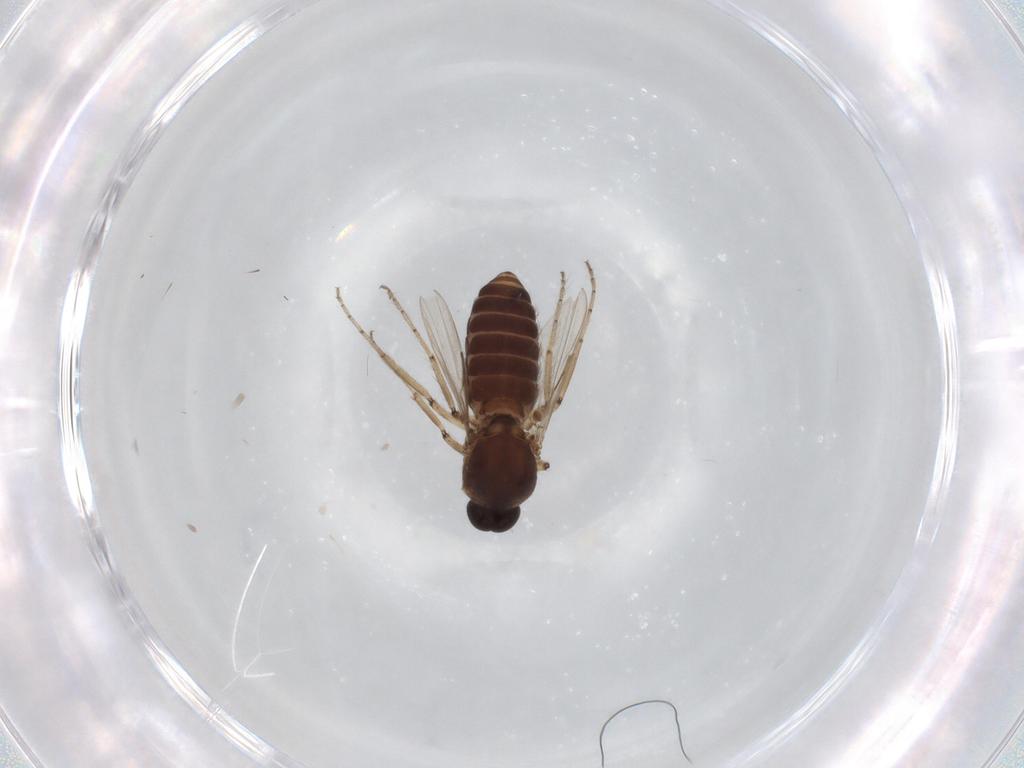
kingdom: Animalia
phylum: Arthropoda
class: Insecta
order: Diptera
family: Ceratopogonidae
